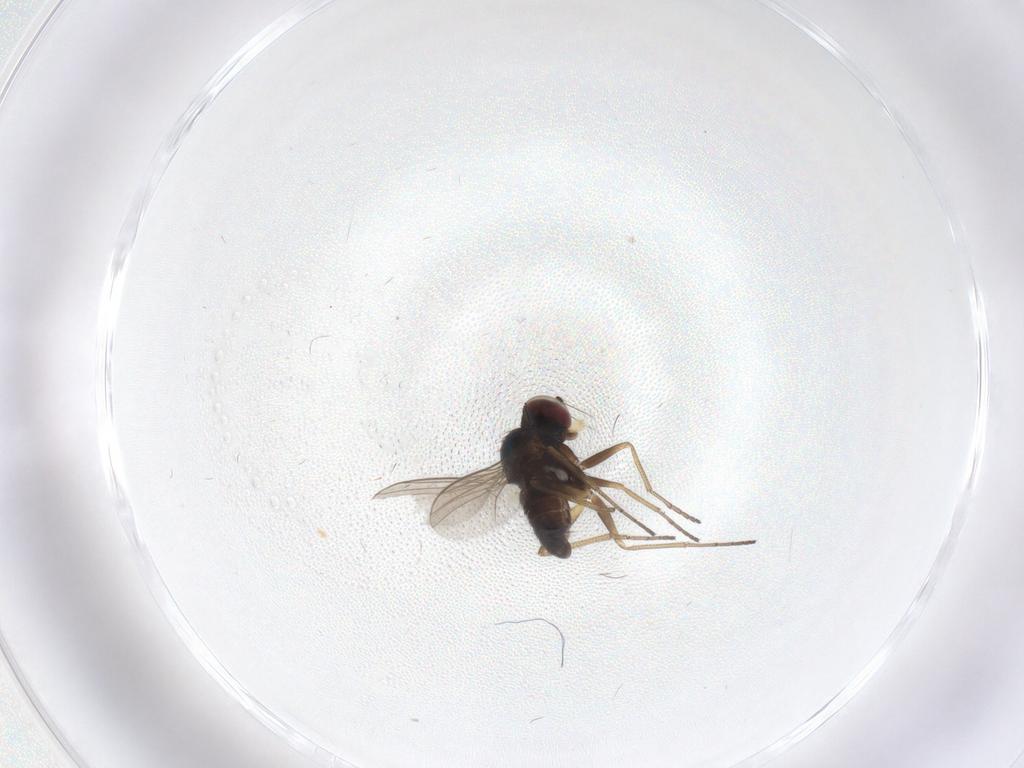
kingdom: Animalia
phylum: Arthropoda
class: Insecta
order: Diptera
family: Dolichopodidae
